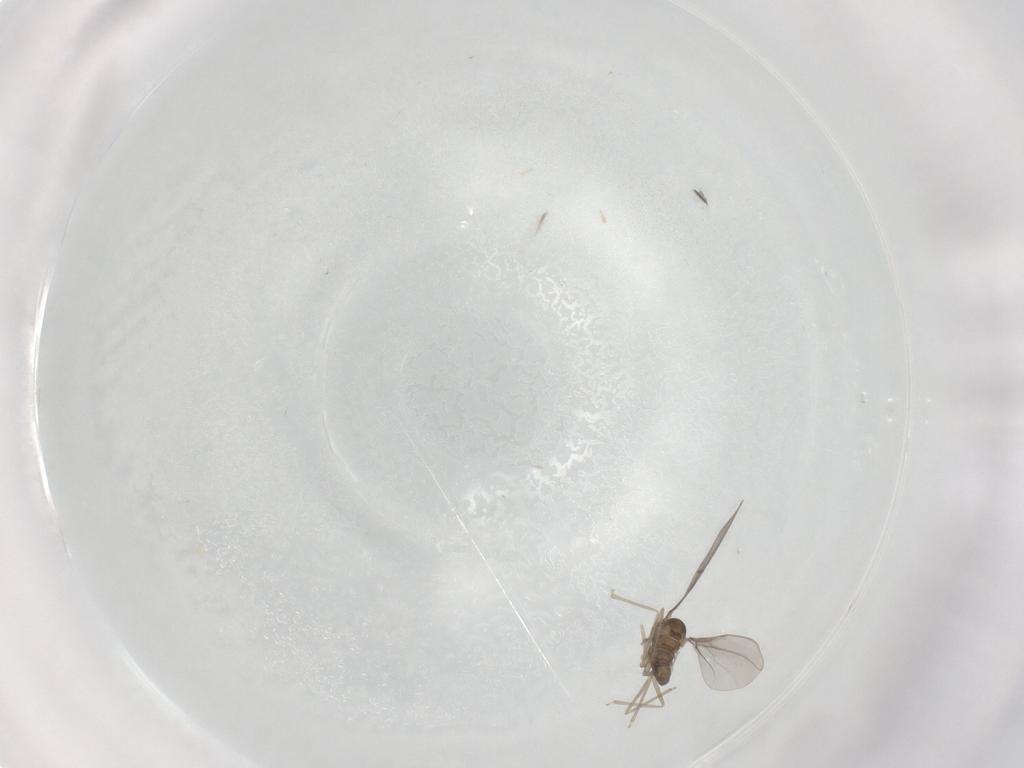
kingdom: Animalia
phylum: Arthropoda
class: Insecta
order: Diptera
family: Cecidomyiidae
